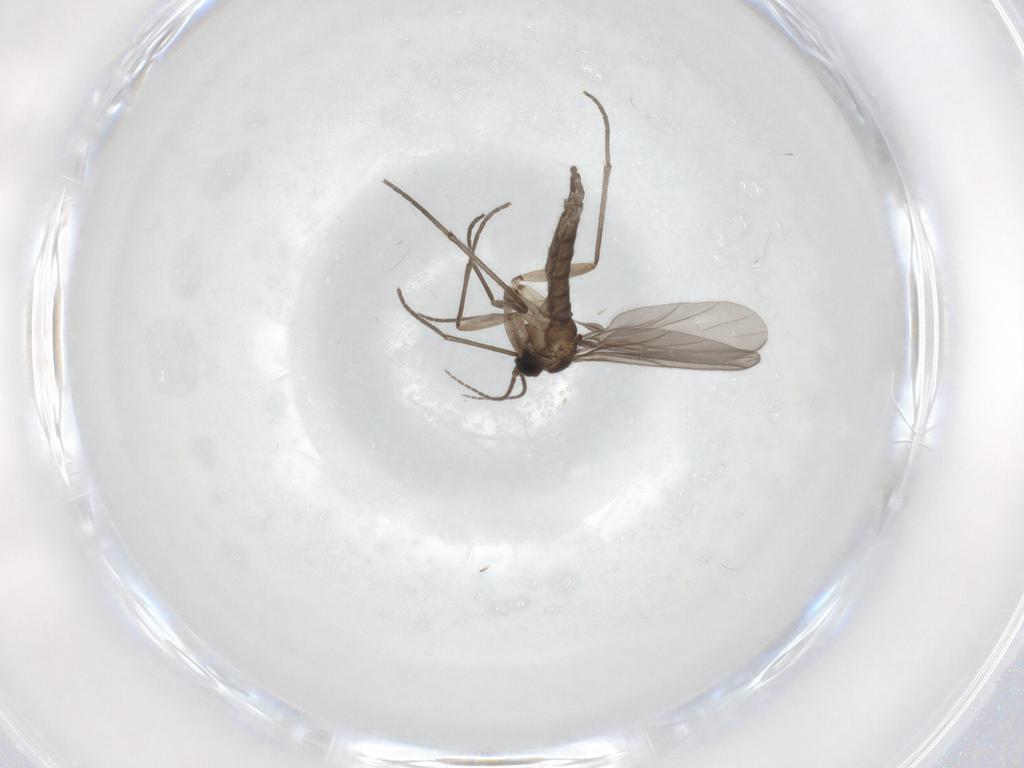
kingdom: Animalia
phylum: Arthropoda
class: Insecta
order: Diptera
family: Sciaridae
